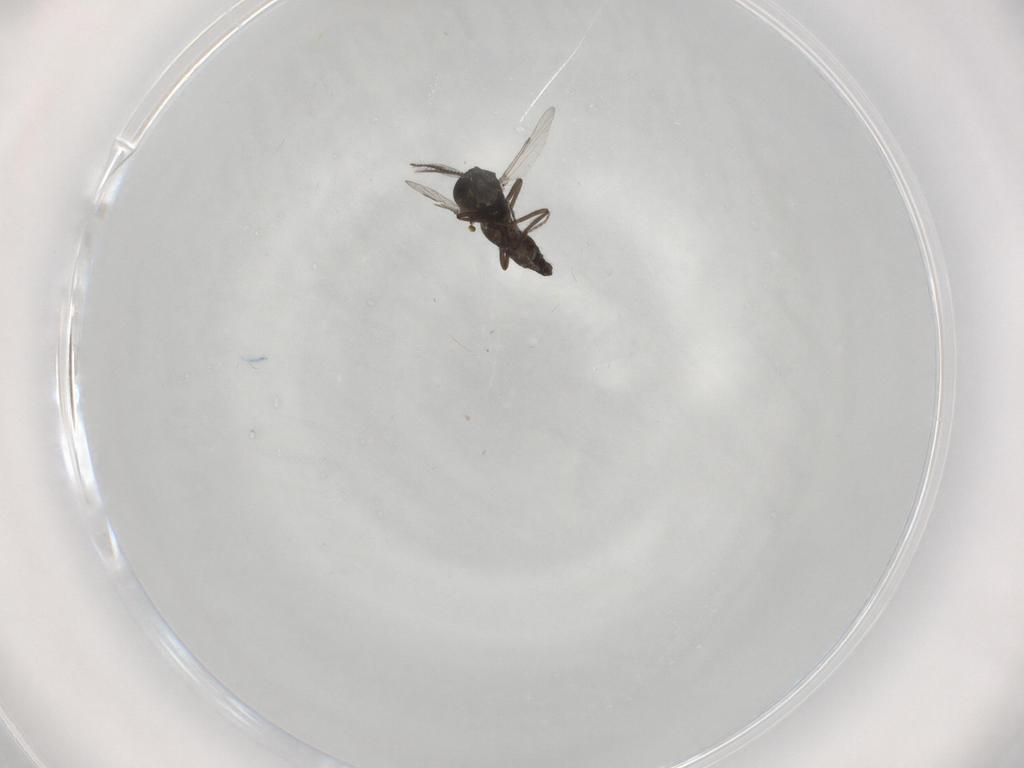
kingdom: Animalia
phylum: Arthropoda
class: Insecta
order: Diptera
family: Ceratopogonidae
